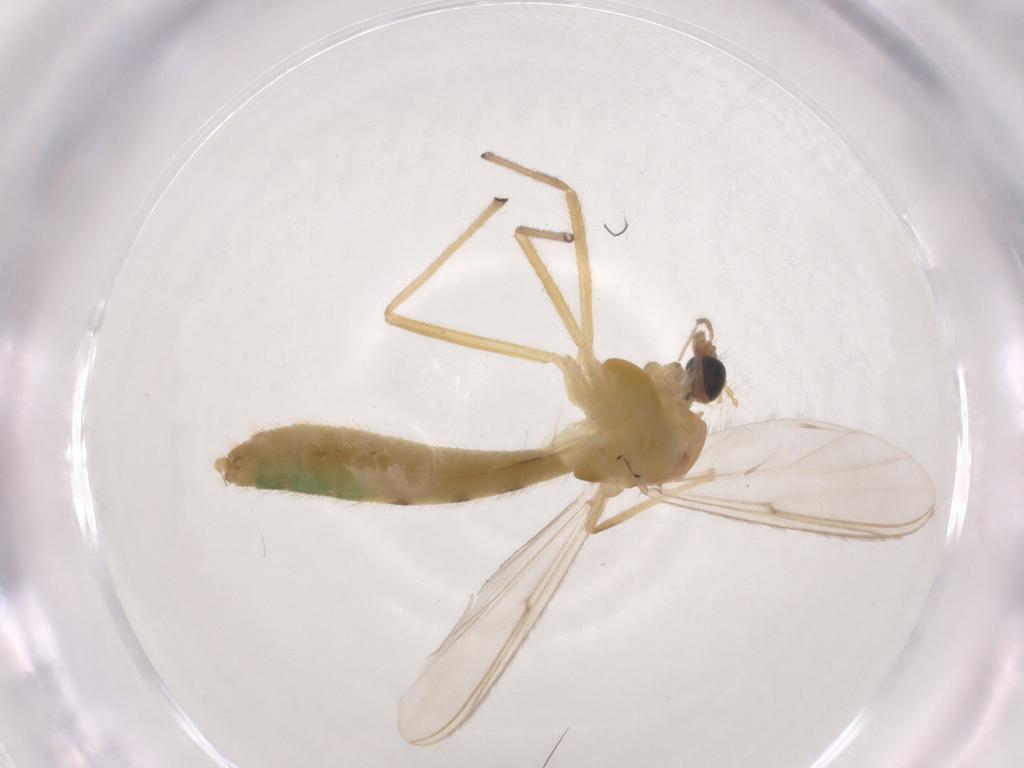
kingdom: Animalia
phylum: Arthropoda
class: Insecta
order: Diptera
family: Chironomidae
